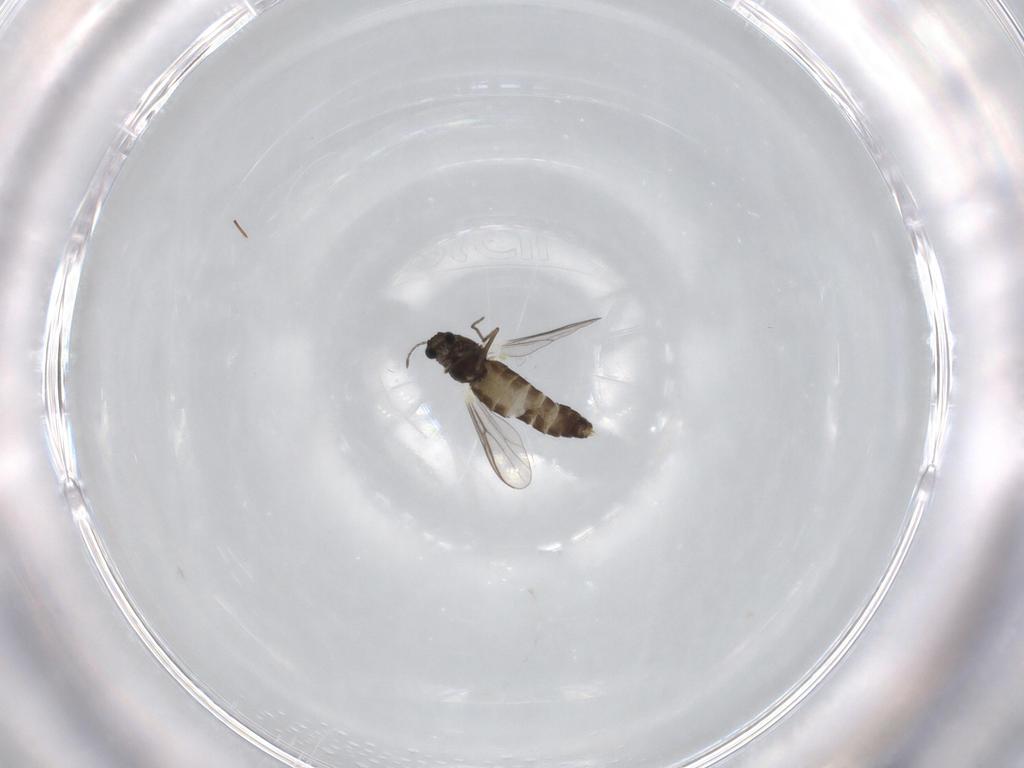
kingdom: Animalia
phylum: Arthropoda
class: Insecta
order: Diptera
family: Chironomidae
